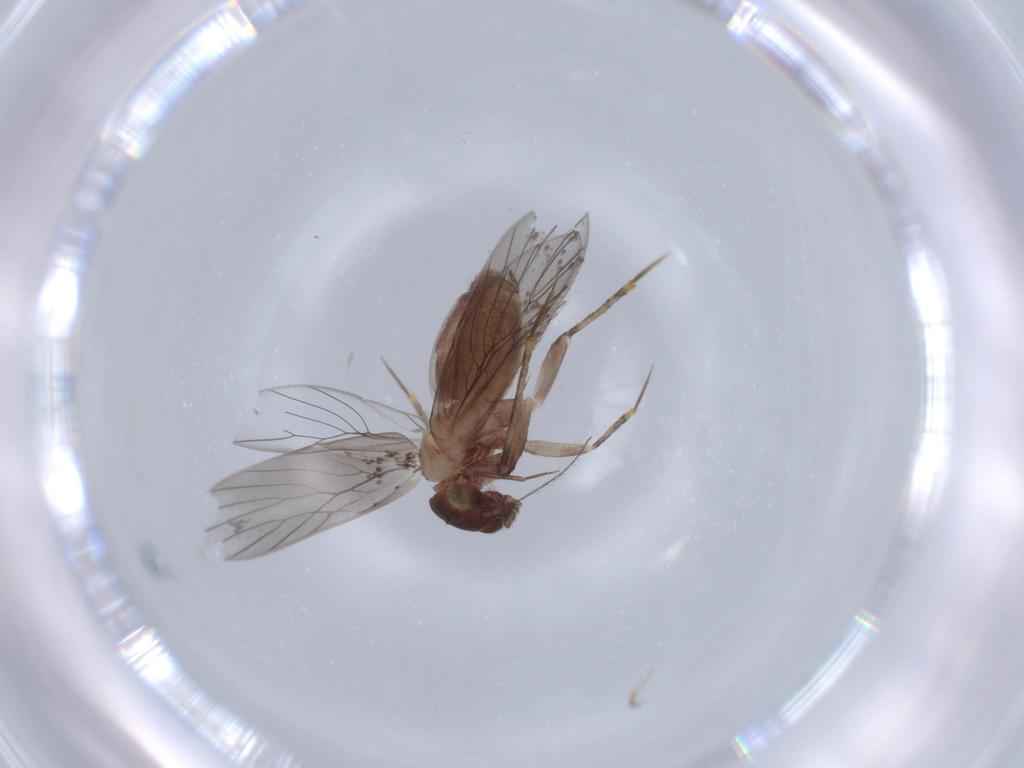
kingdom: Animalia
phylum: Arthropoda
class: Insecta
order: Psocodea
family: Lepidopsocidae
